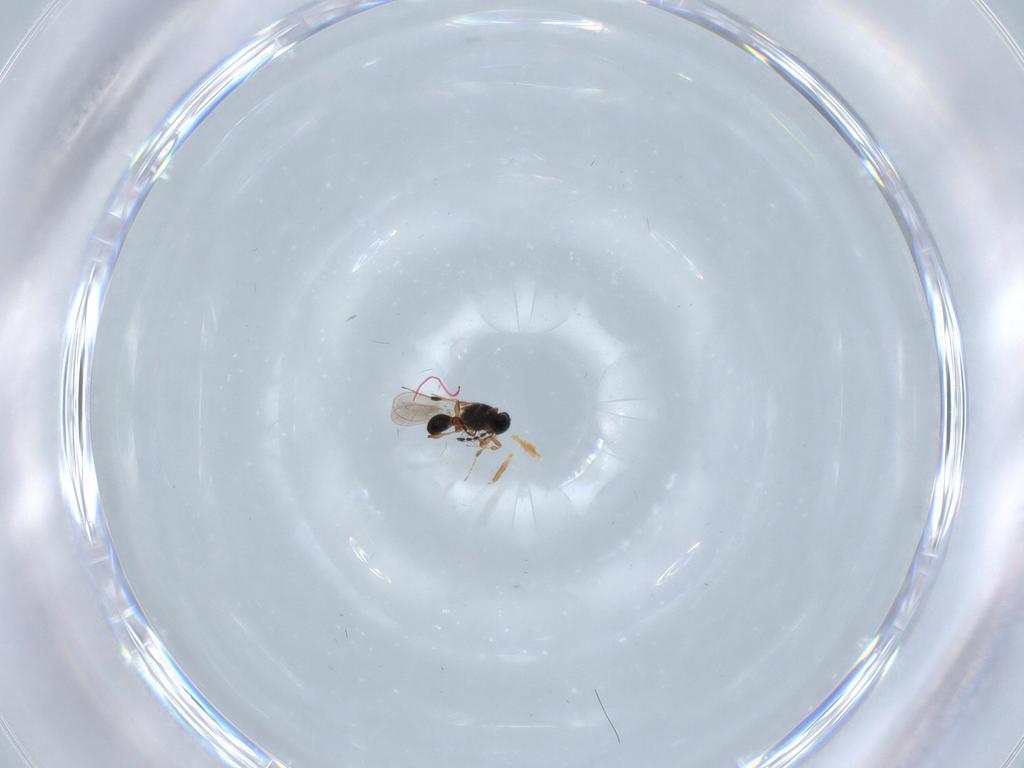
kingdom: Animalia
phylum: Arthropoda
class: Insecta
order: Hymenoptera
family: Platygastridae
